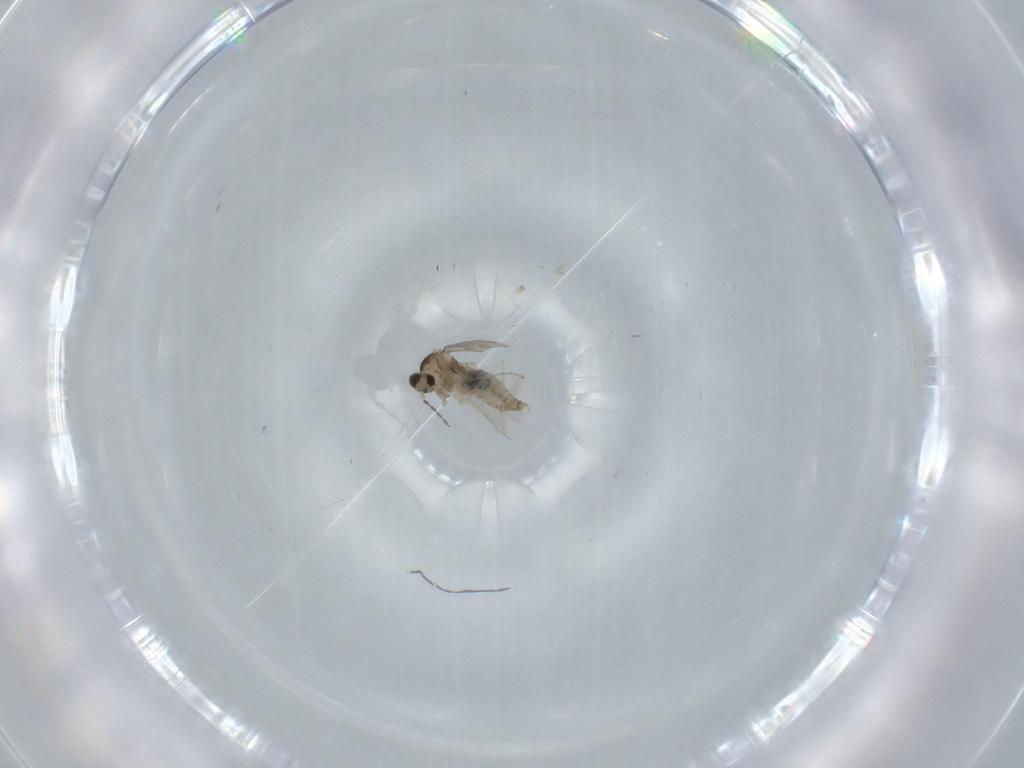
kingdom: Animalia
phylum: Arthropoda
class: Insecta
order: Diptera
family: Cecidomyiidae
